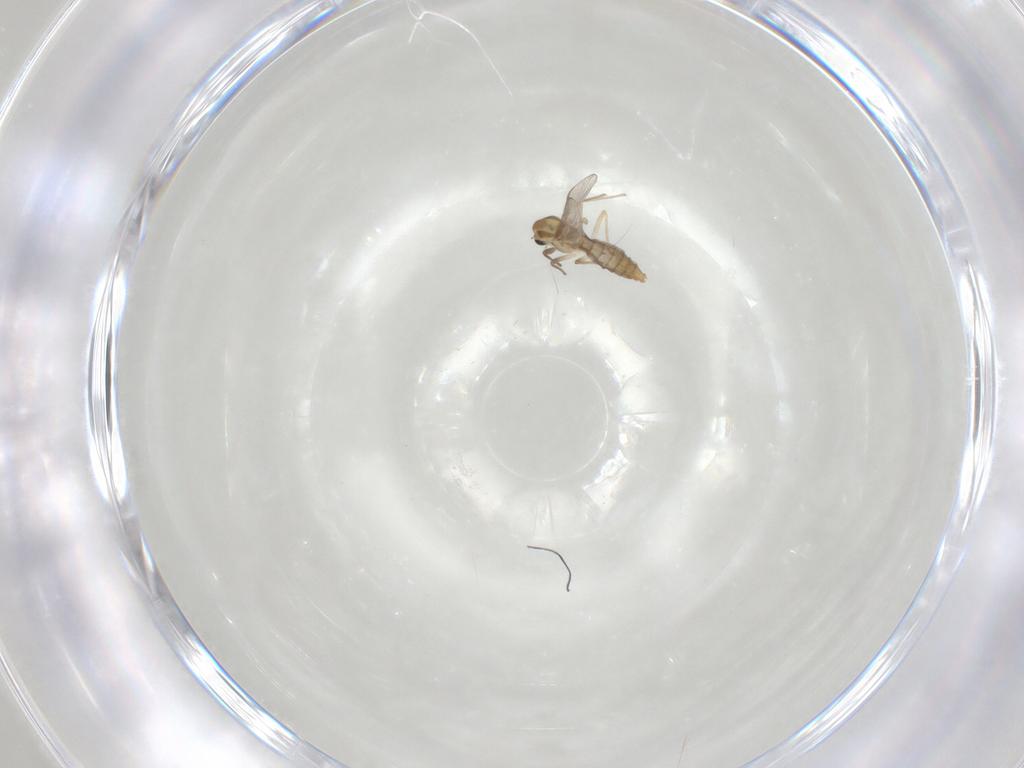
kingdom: Animalia
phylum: Arthropoda
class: Insecta
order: Diptera
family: Chironomidae
